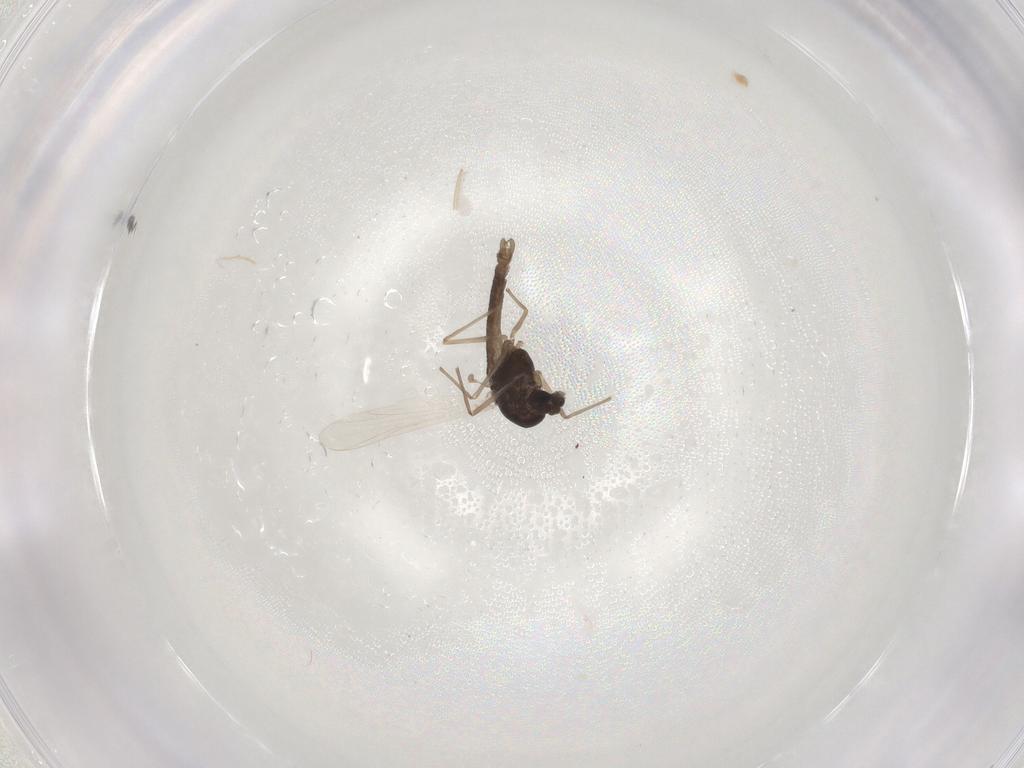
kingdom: Animalia
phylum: Arthropoda
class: Insecta
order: Diptera
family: Chironomidae
